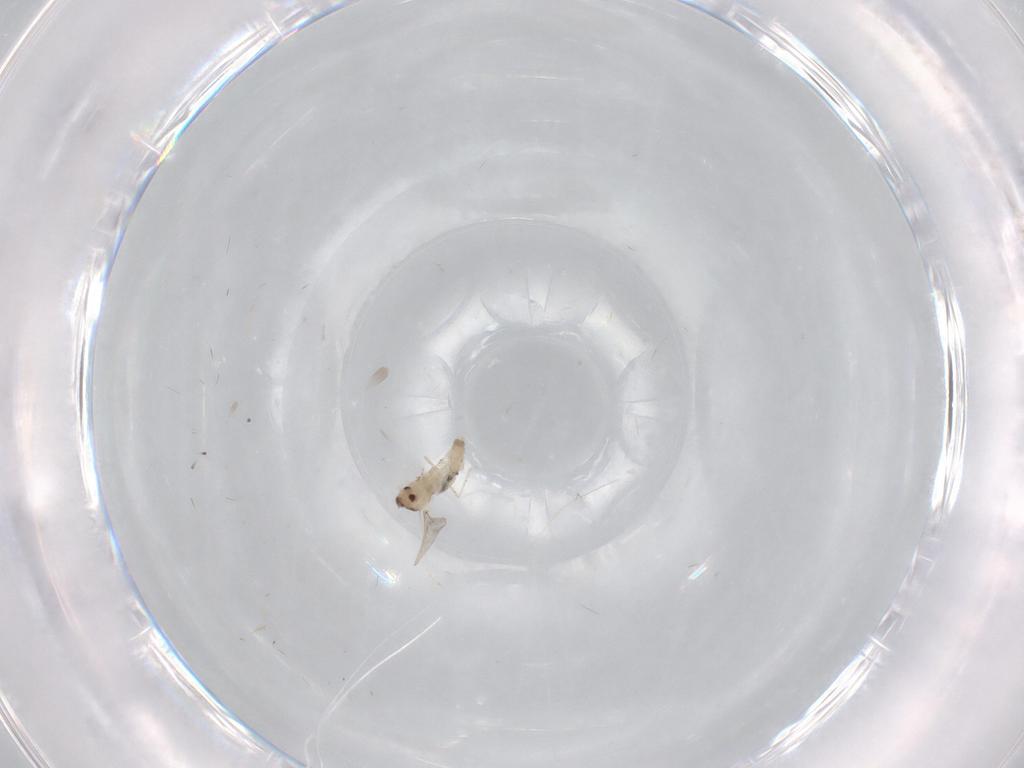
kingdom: Animalia
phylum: Arthropoda
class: Insecta
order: Diptera
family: Cecidomyiidae
